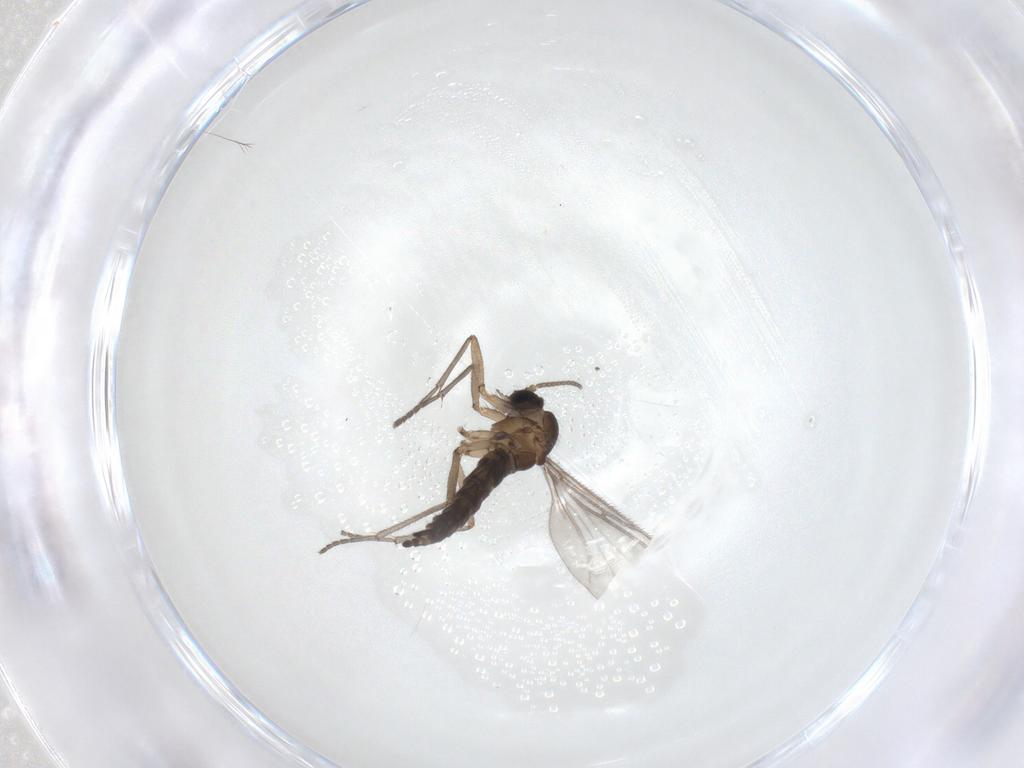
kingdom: Animalia
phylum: Arthropoda
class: Insecta
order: Diptera
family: Sciaridae
